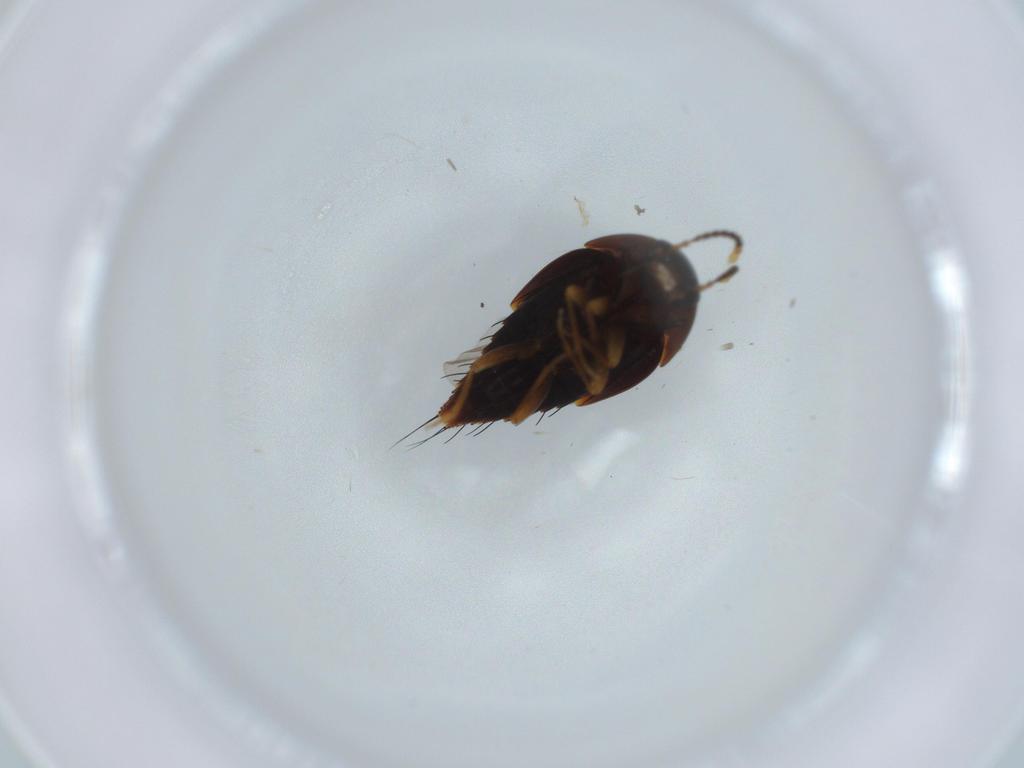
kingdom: Animalia
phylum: Arthropoda
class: Insecta
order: Coleoptera
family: Staphylinidae
